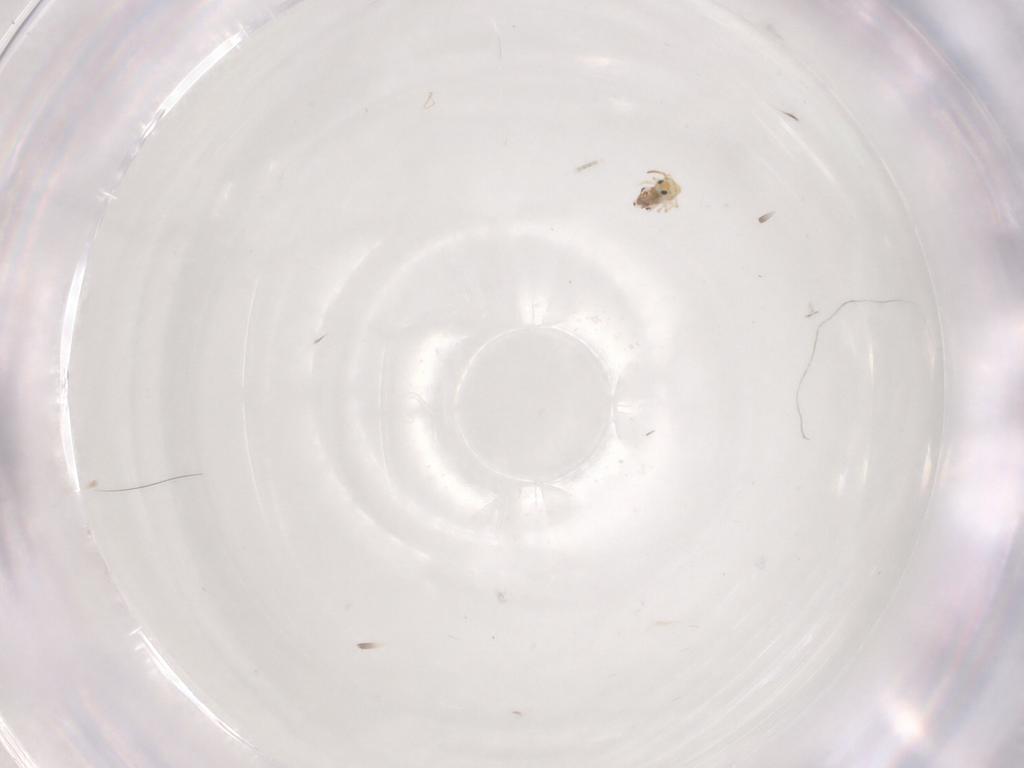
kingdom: Animalia
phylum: Arthropoda
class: Collembola
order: Symphypleona
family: Bourletiellidae
